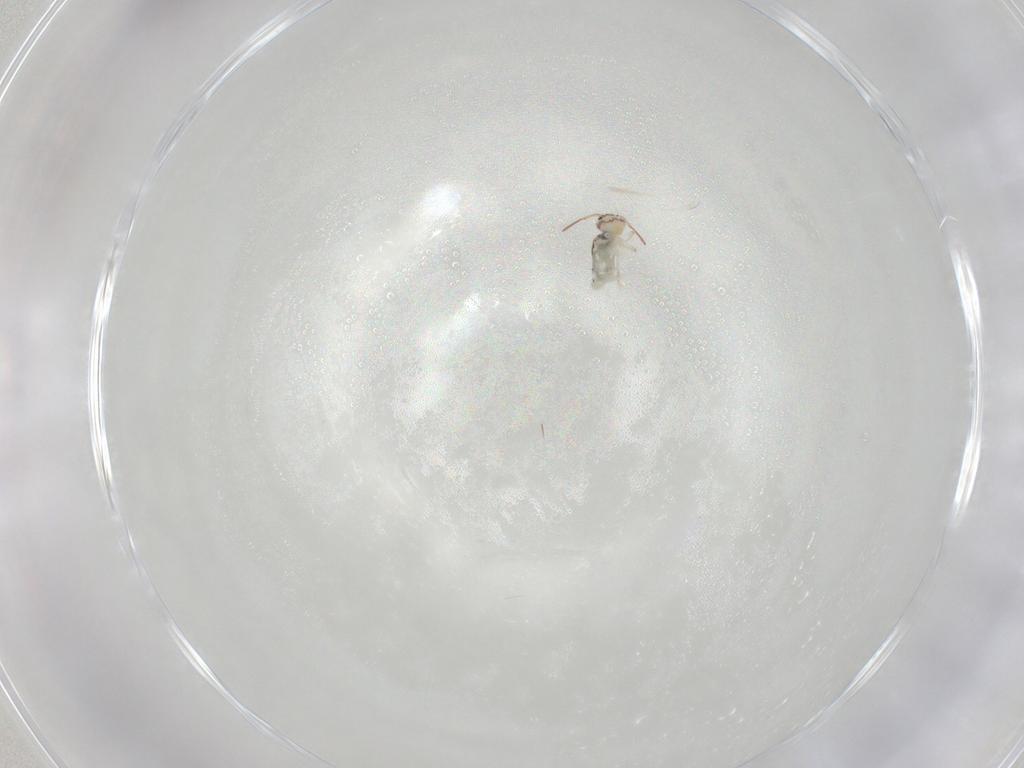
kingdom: Animalia
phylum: Arthropoda
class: Collembola
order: Symphypleona
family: Bourletiellidae
